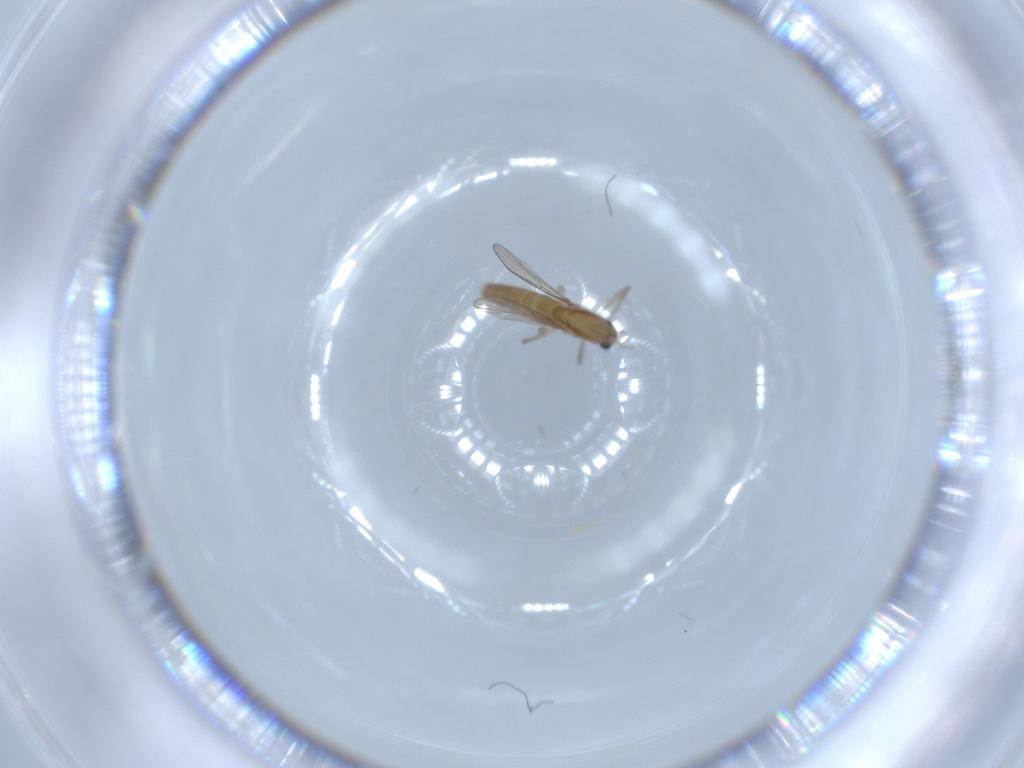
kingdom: Animalia
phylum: Arthropoda
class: Insecta
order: Diptera
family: Chironomidae
